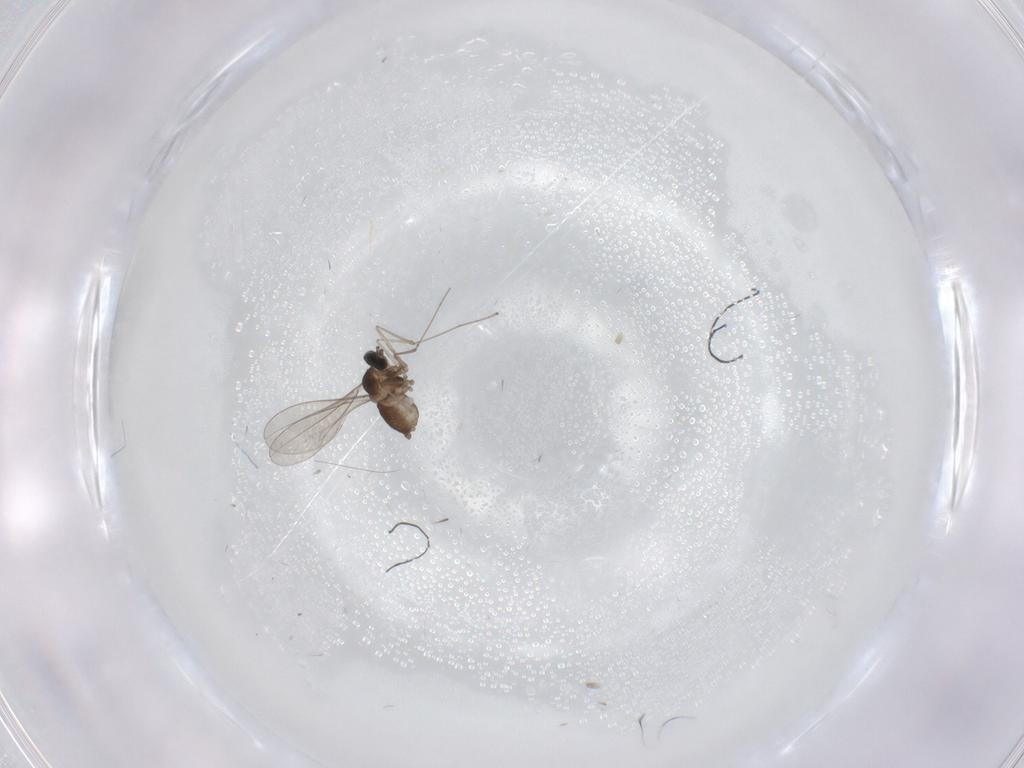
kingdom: Animalia
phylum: Arthropoda
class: Insecta
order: Diptera
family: Cecidomyiidae
